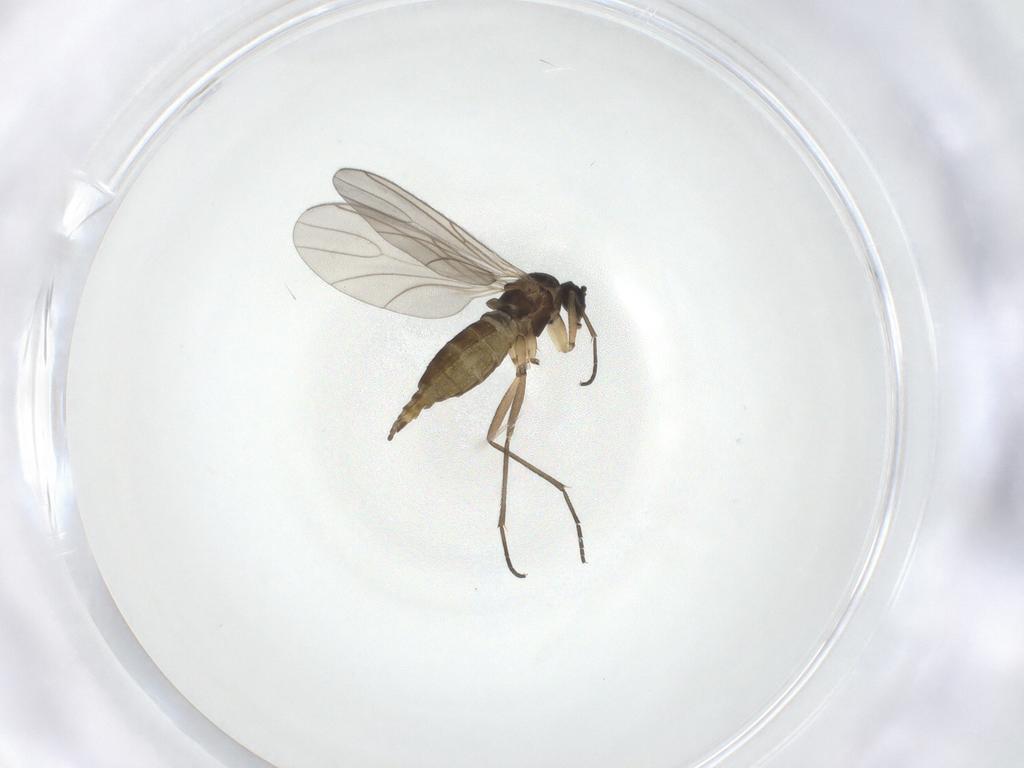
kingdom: Animalia
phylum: Arthropoda
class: Insecta
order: Diptera
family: Sciaridae
